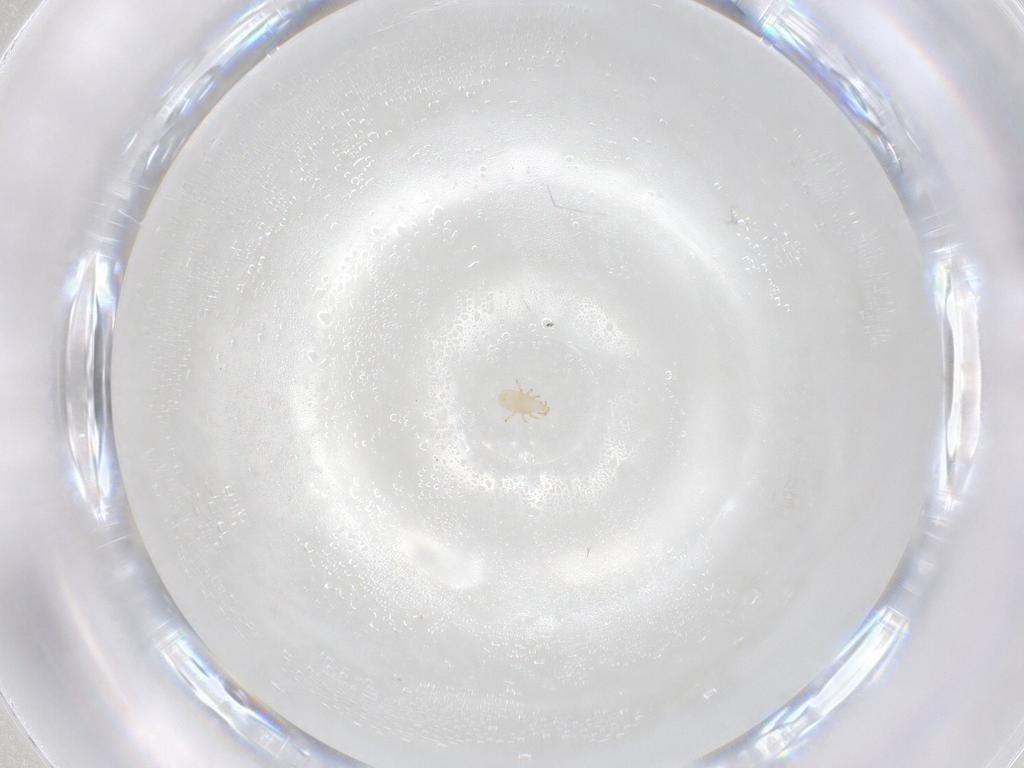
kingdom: Animalia
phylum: Arthropoda
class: Arachnida
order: Mesostigmata
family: Phytoseiidae
